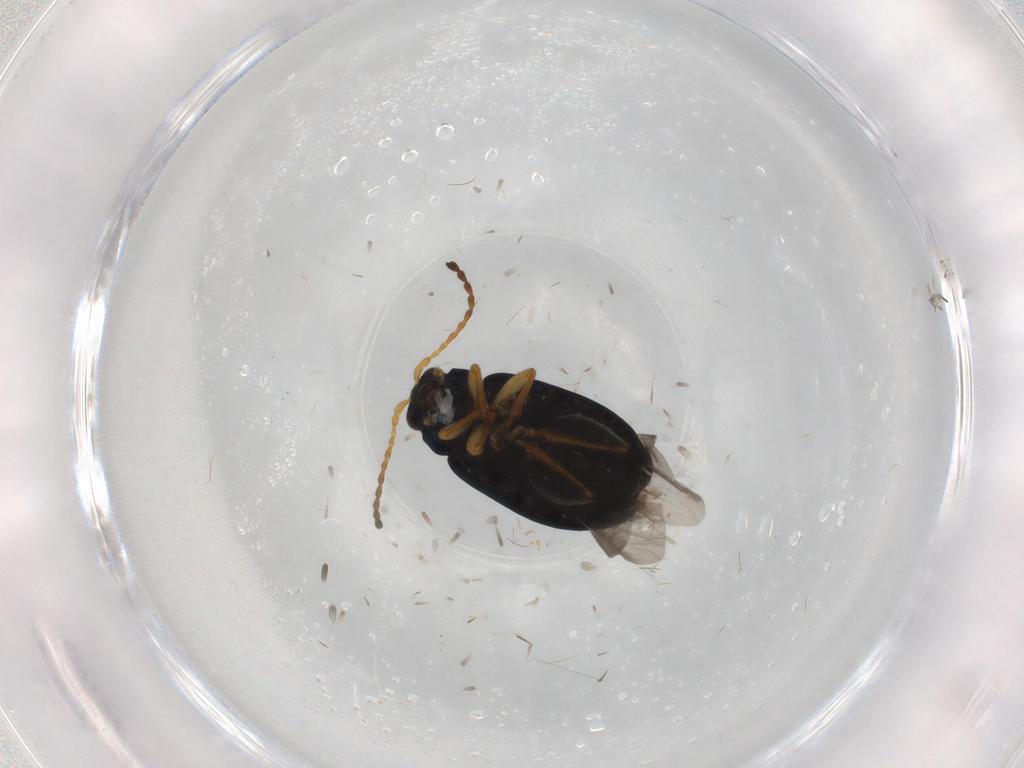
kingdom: Animalia
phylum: Arthropoda
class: Insecta
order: Coleoptera
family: Chrysomelidae
